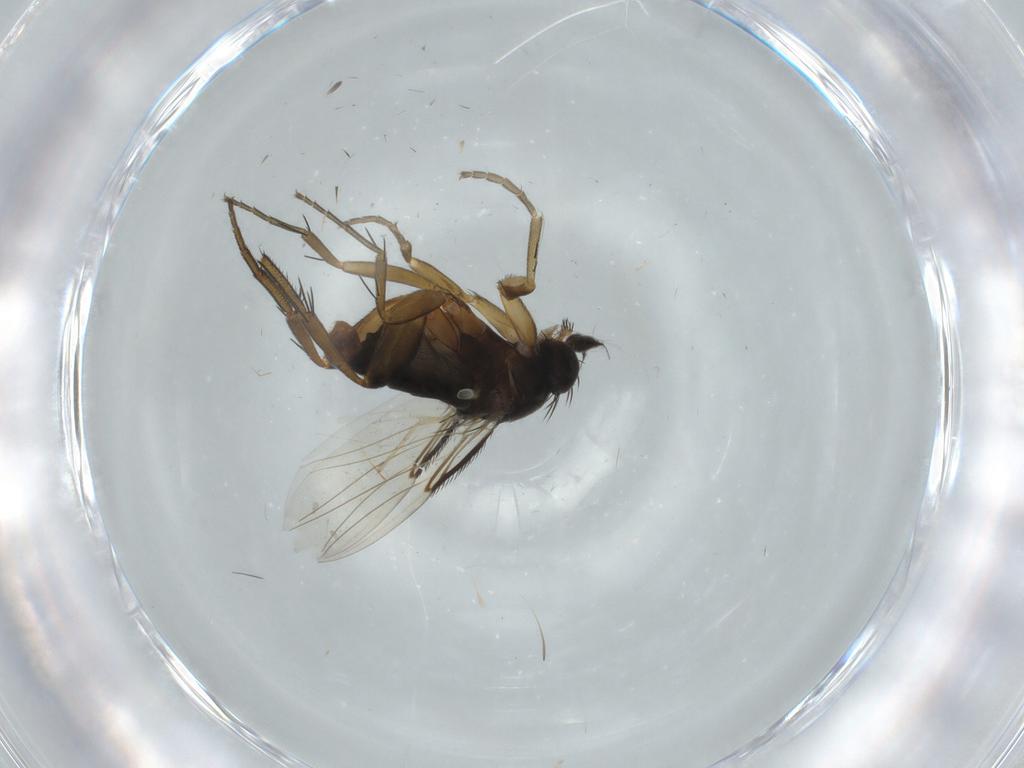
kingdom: Animalia
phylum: Arthropoda
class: Insecta
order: Diptera
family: Phoridae
